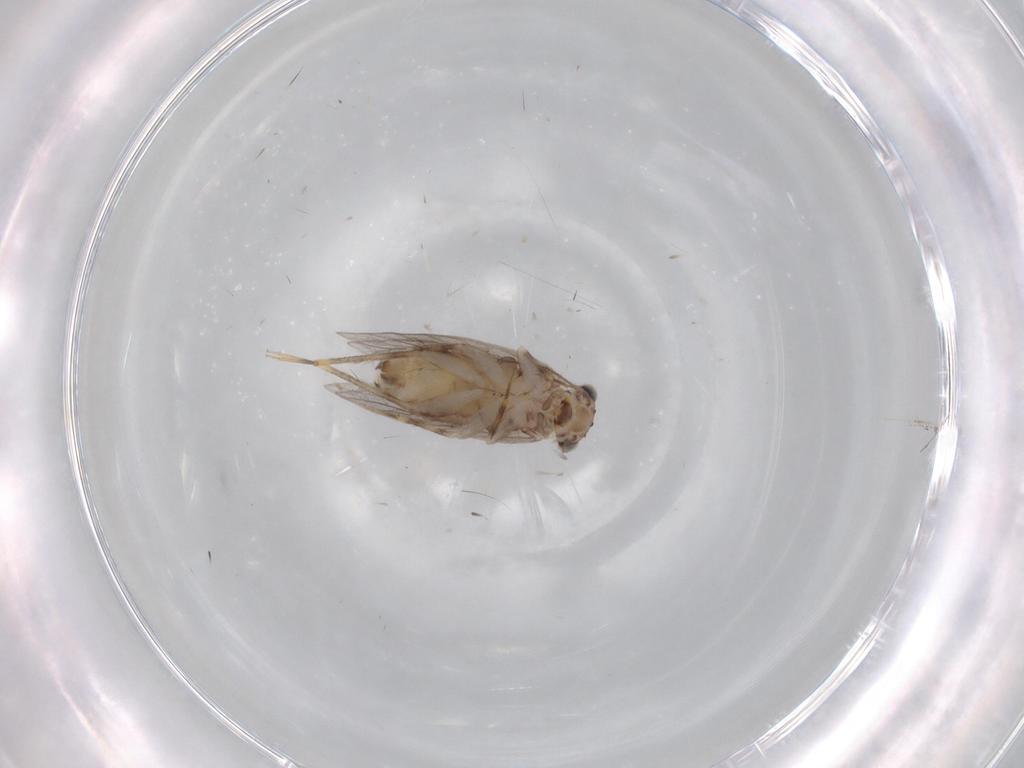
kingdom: Animalia
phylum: Arthropoda
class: Insecta
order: Psocodea
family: Lepidopsocidae
